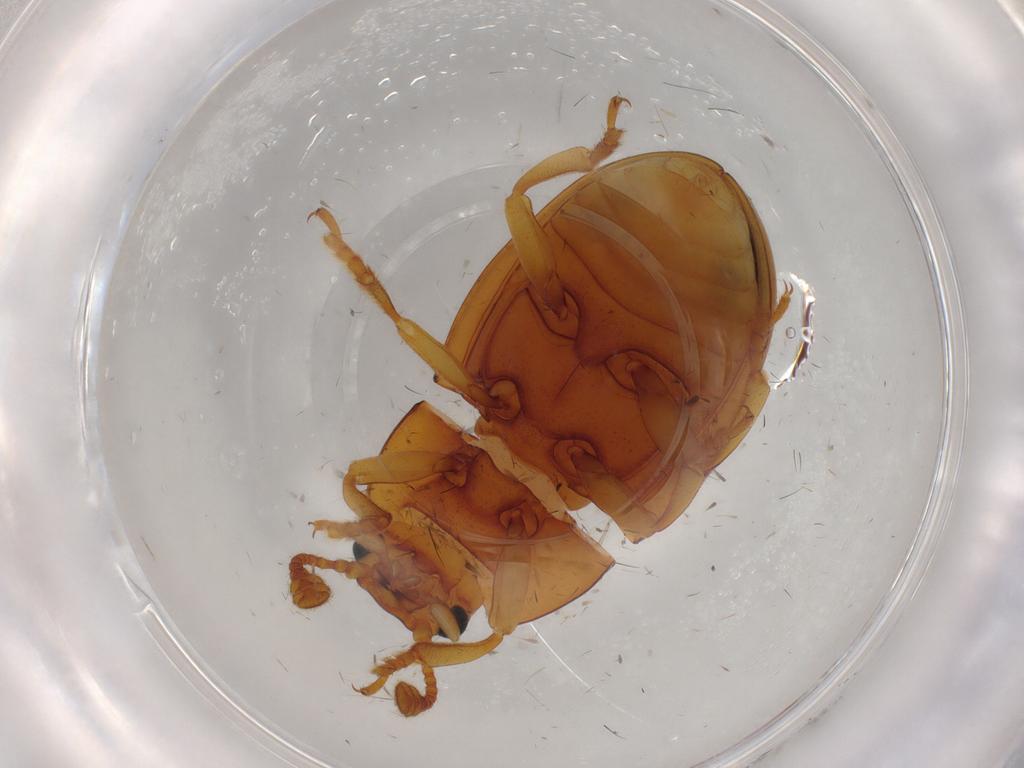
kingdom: Animalia
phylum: Arthropoda
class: Insecta
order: Coleoptera
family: Erotylidae
